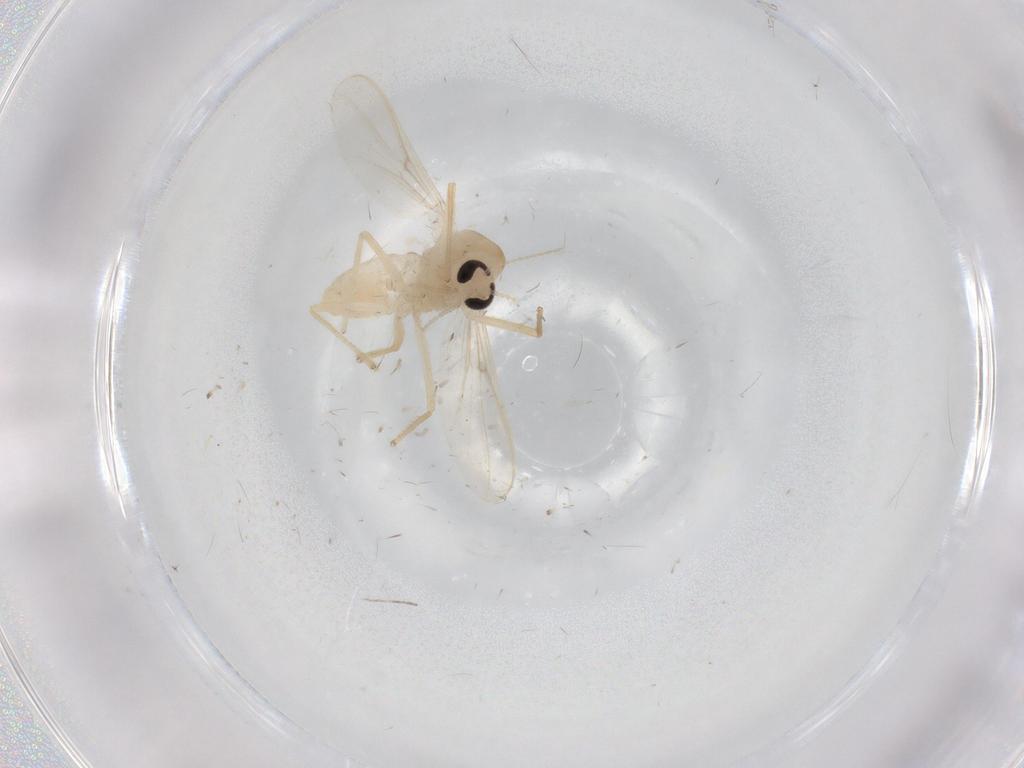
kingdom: Animalia
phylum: Arthropoda
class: Insecta
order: Diptera
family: Chironomidae
